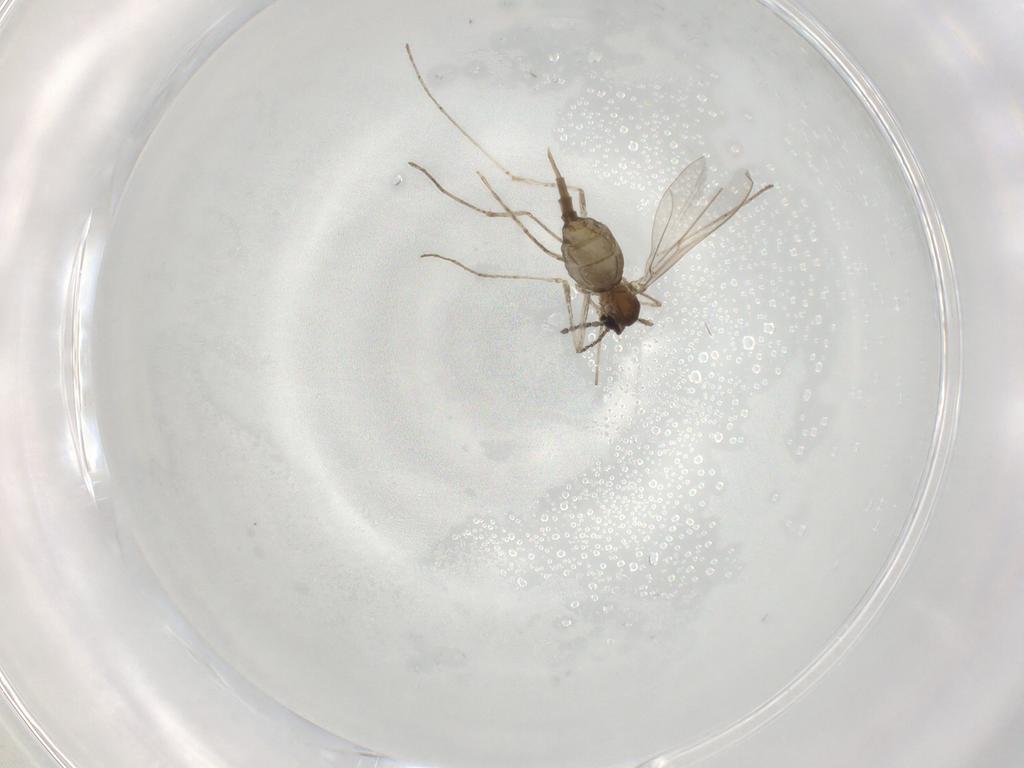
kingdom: Animalia
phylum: Arthropoda
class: Insecta
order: Diptera
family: Cecidomyiidae
